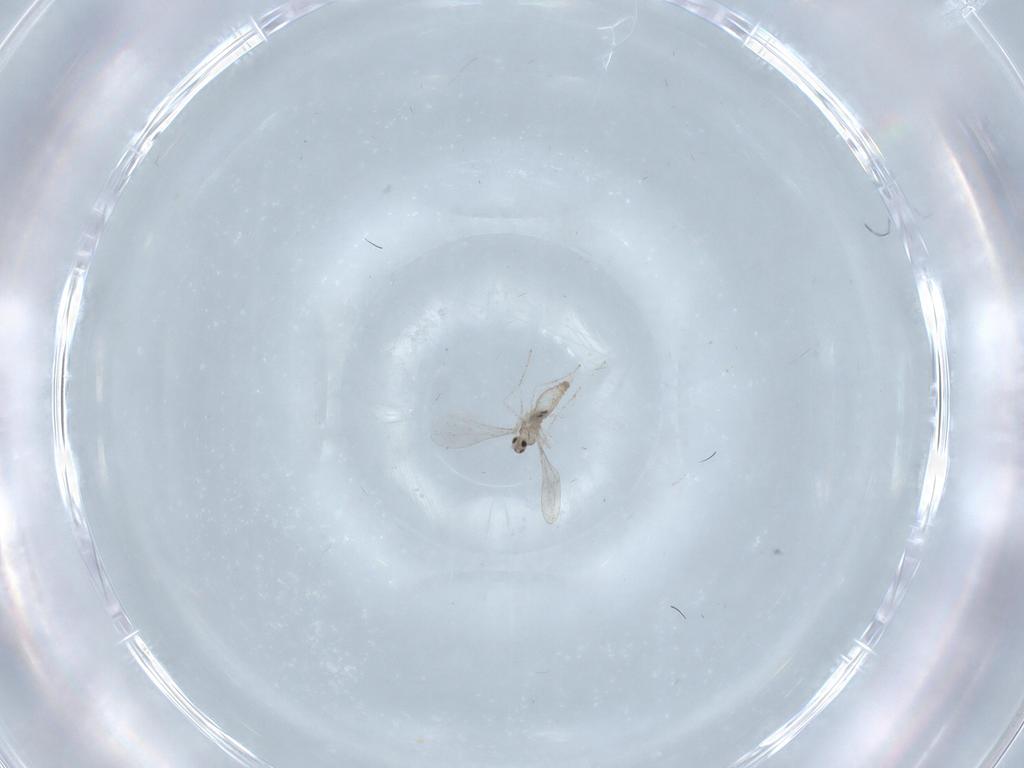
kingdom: Animalia
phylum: Arthropoda
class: Insecta
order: Diptera
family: Cecidomyiidae
